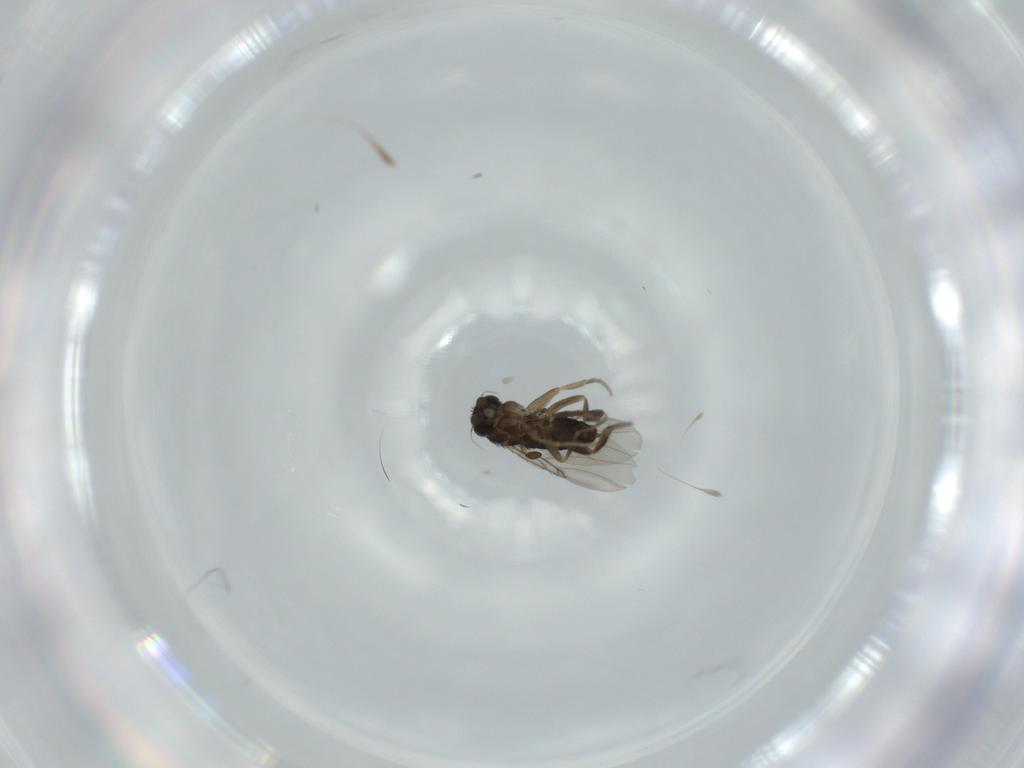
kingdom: Animalia
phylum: Arthropoda
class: Insecta
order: Diptera
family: Phoridae
